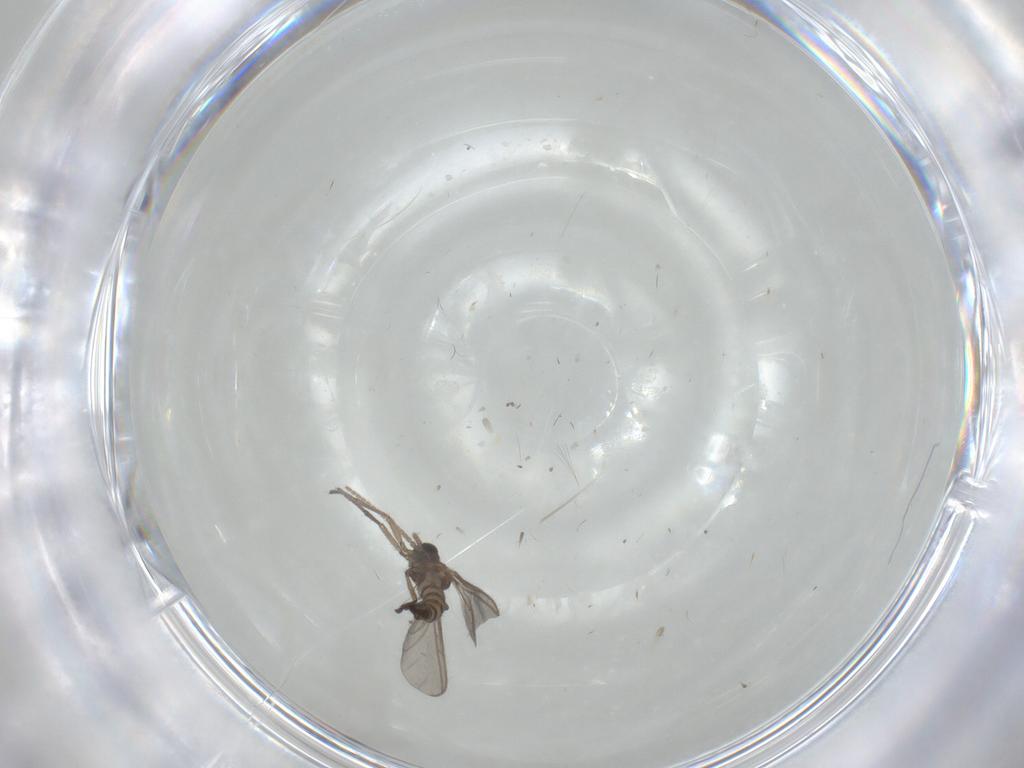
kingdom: Animalia
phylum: Arthropoda
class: Insecta
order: Diptera
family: Sciaridae
